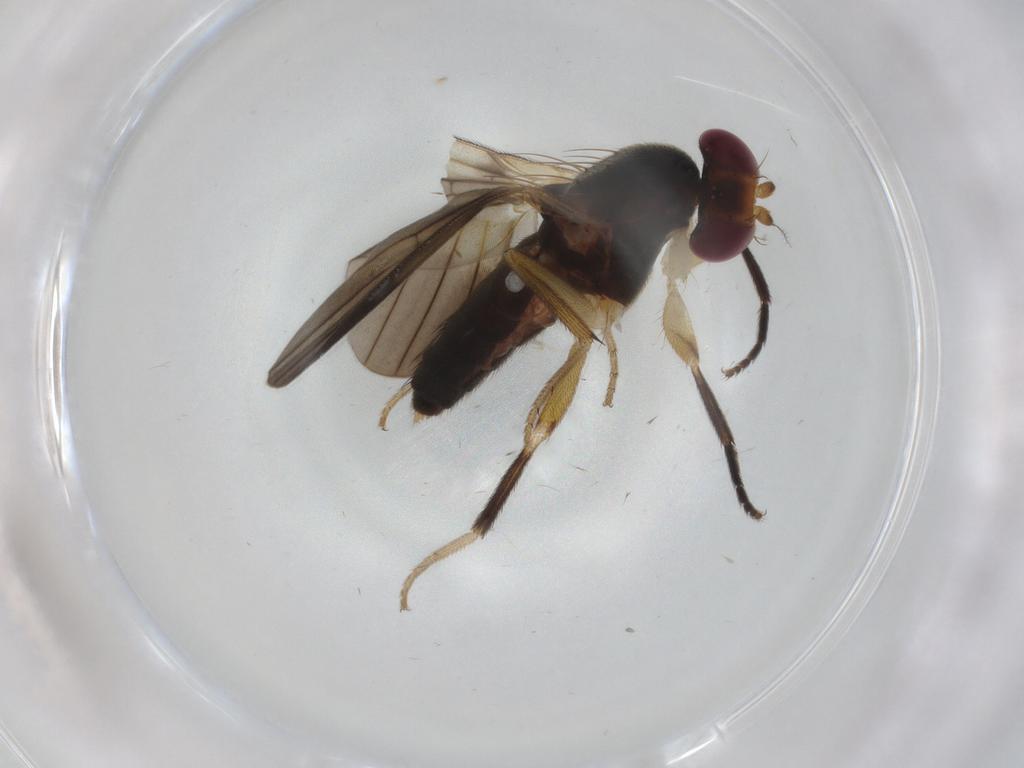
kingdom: Animalia
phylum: Arthropoda
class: Insecta
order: Diptera
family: Clusiidae
